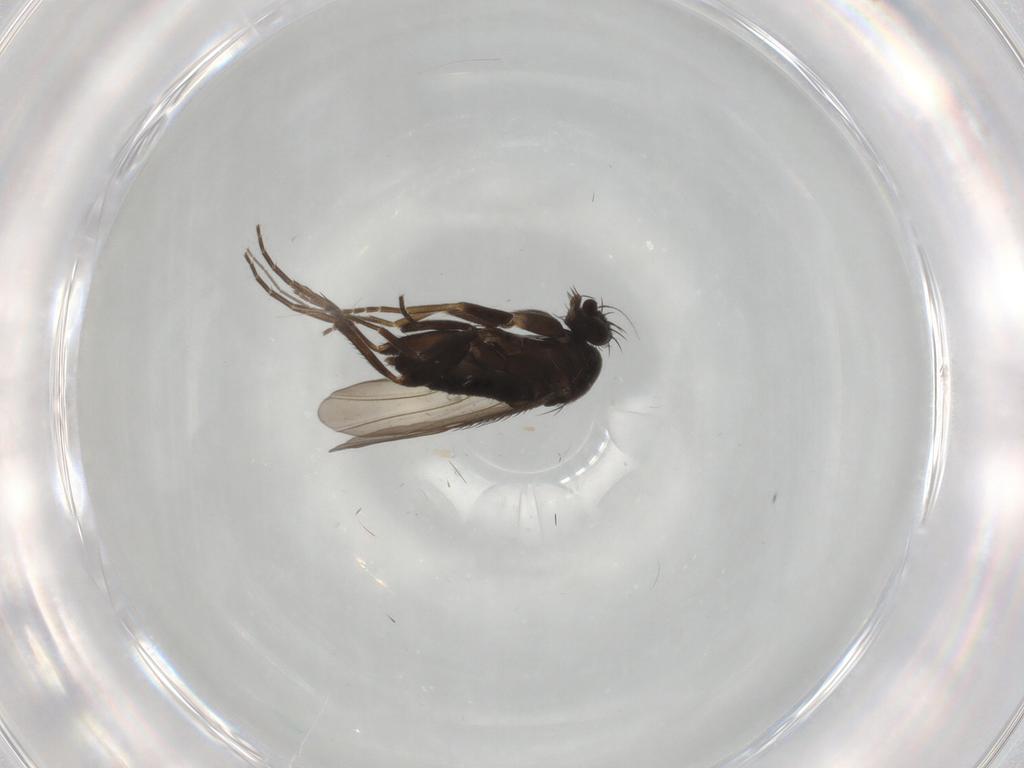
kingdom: Animalia
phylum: Arthropoda
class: Insecta
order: Diptera
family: Phoridae
